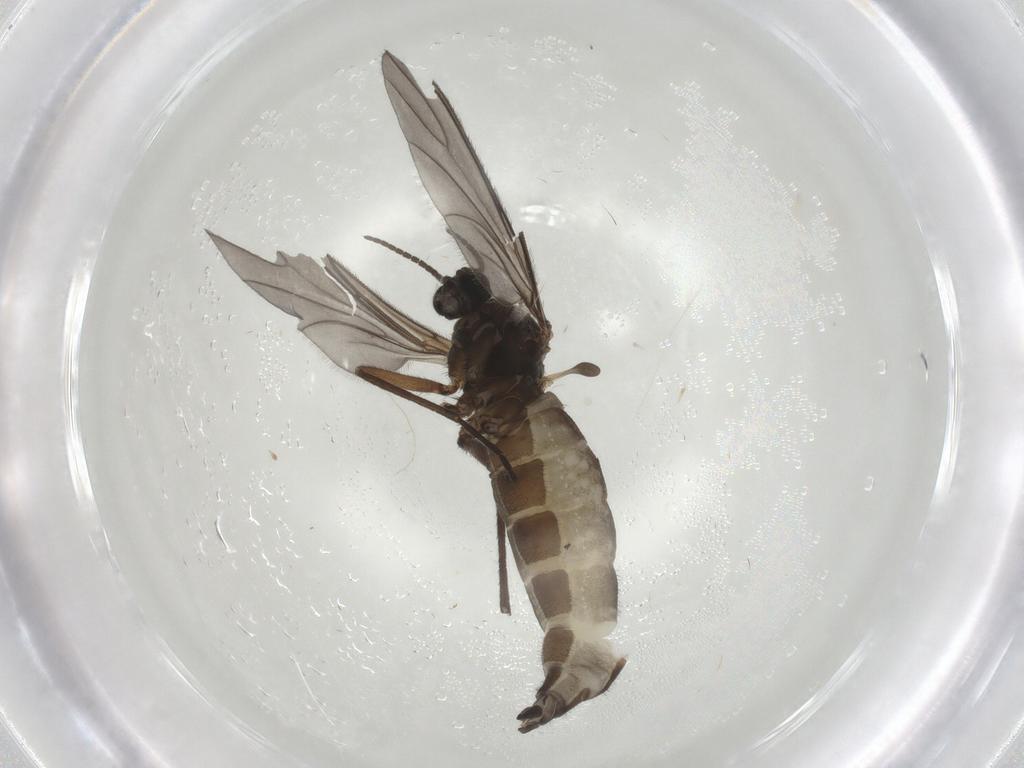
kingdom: Animalia
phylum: Arthropoda
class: Insecta
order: Diptera
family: Sciaridae
